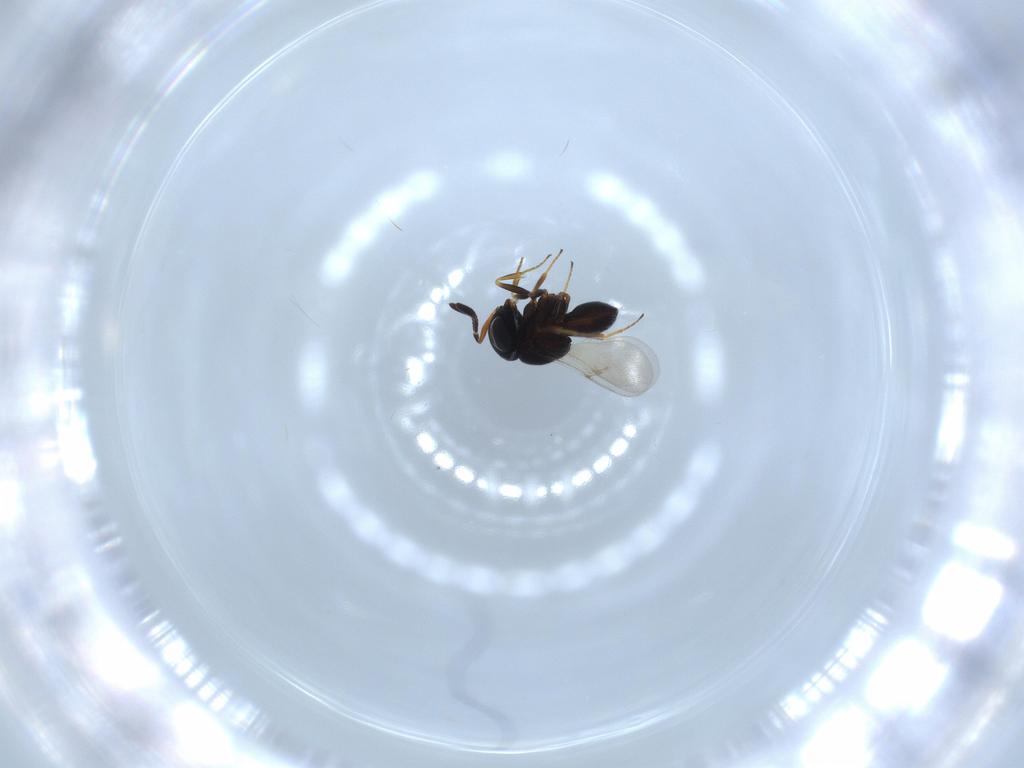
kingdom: Animalia
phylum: Arthropoda
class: Insecta
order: Hymenoptera
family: Scelionidae
